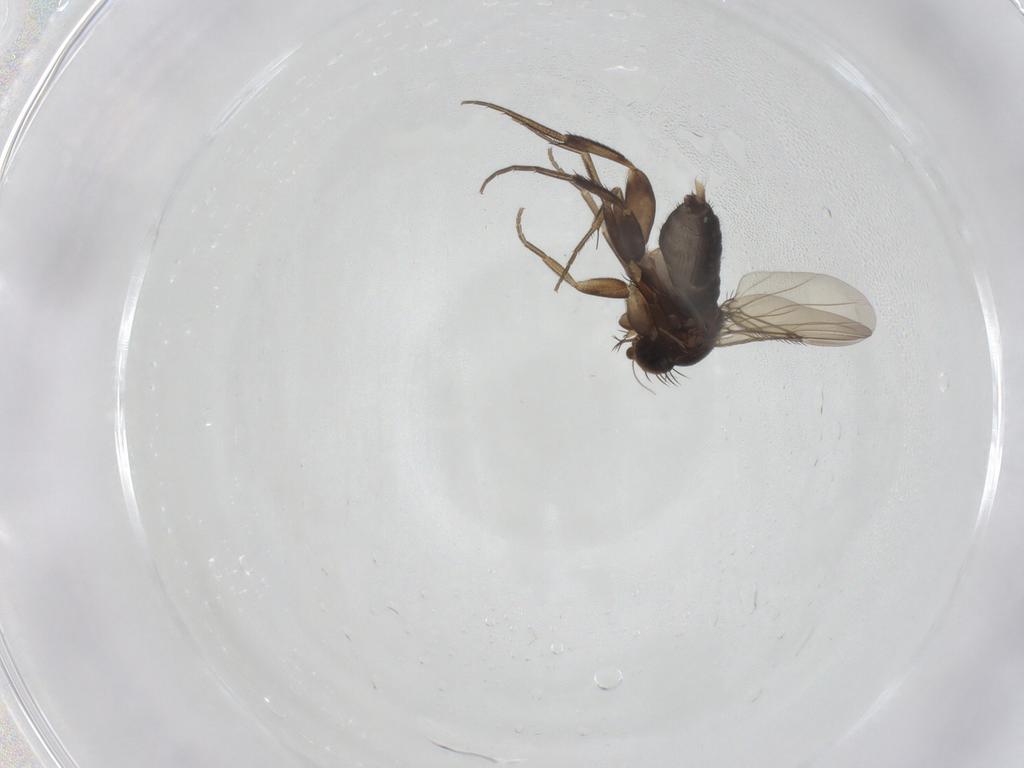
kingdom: Animalia
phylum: Arthropoda
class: Insecta
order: Diptera
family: Phoridae
